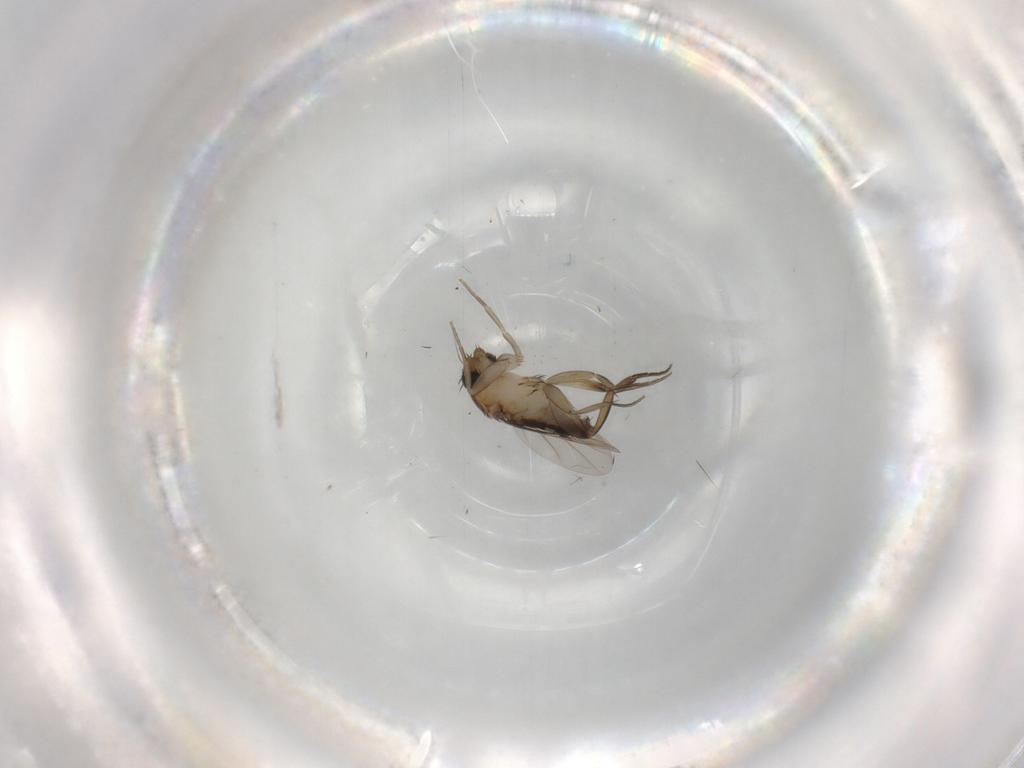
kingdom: Animalia
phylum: Arthropoda
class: Insecta
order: Diptera
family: Phoridae
